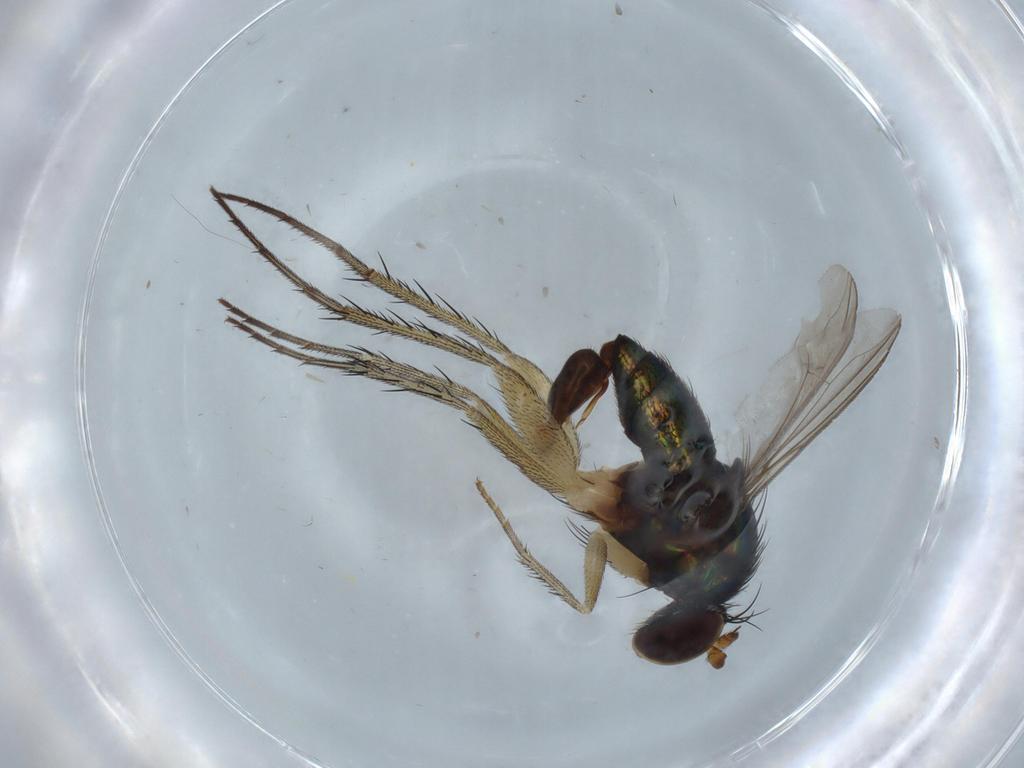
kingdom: Animalia
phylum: Arthropoda
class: Insecta
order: Diptera
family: Dolichopodidae
